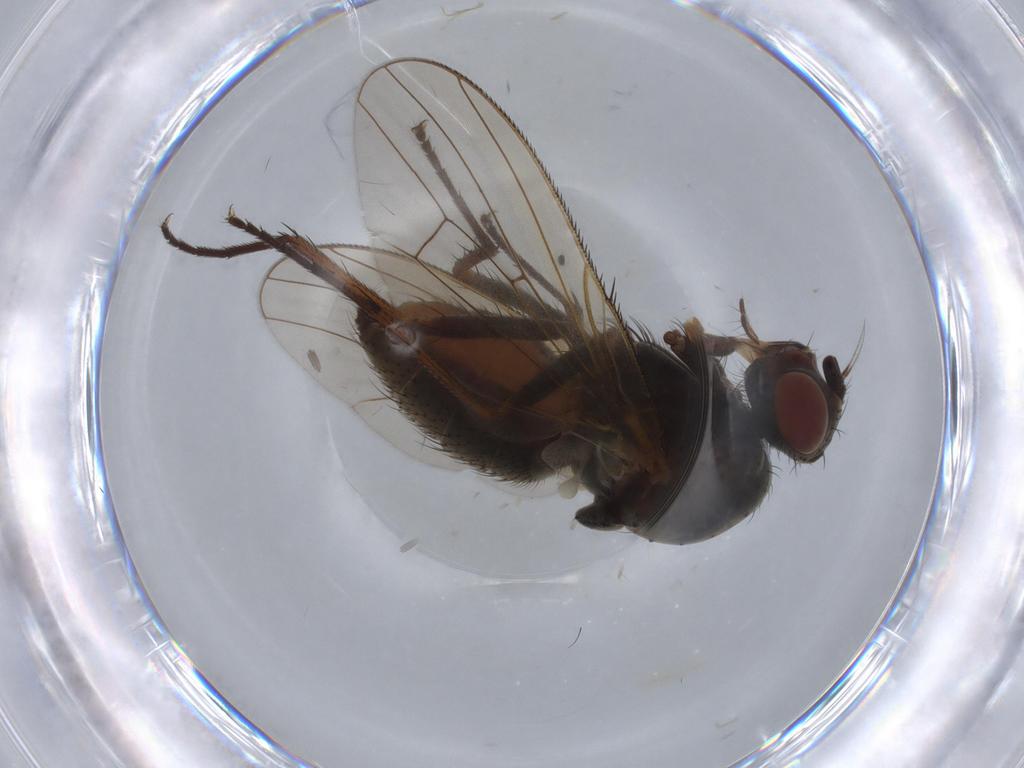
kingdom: Animalia
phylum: Arthropoda
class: Insecta
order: Diptera
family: Anthomyiidae
